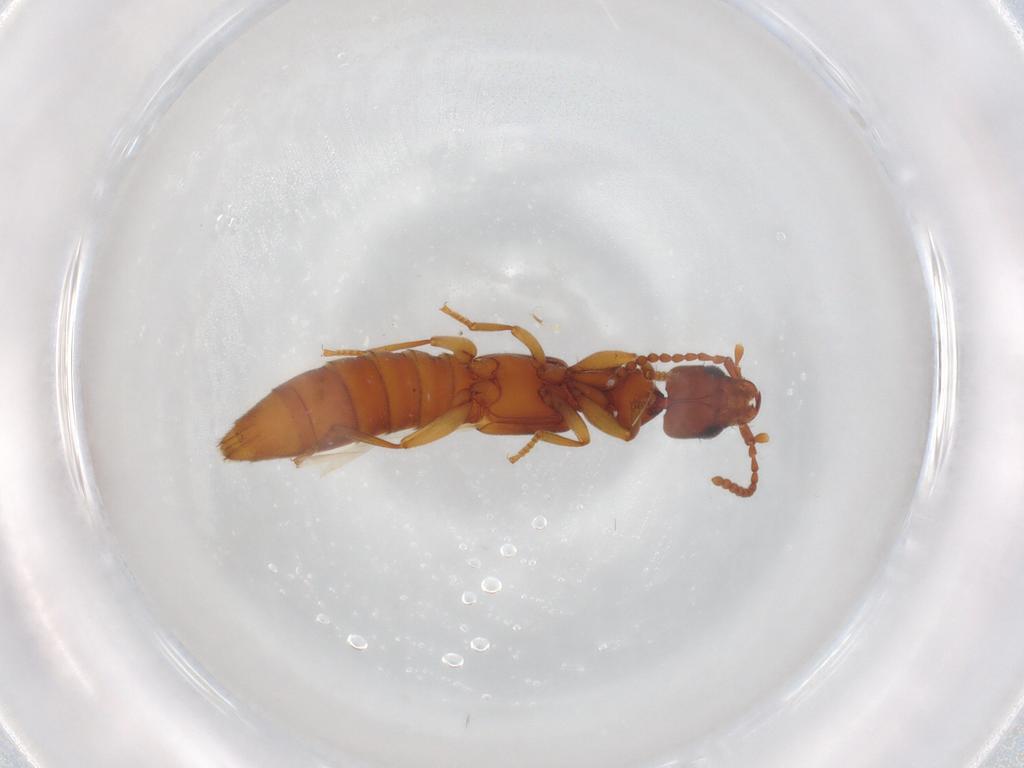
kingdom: Animalia
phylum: Arthropoda
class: Insecta
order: Coleoptera
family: Staphylinidae
